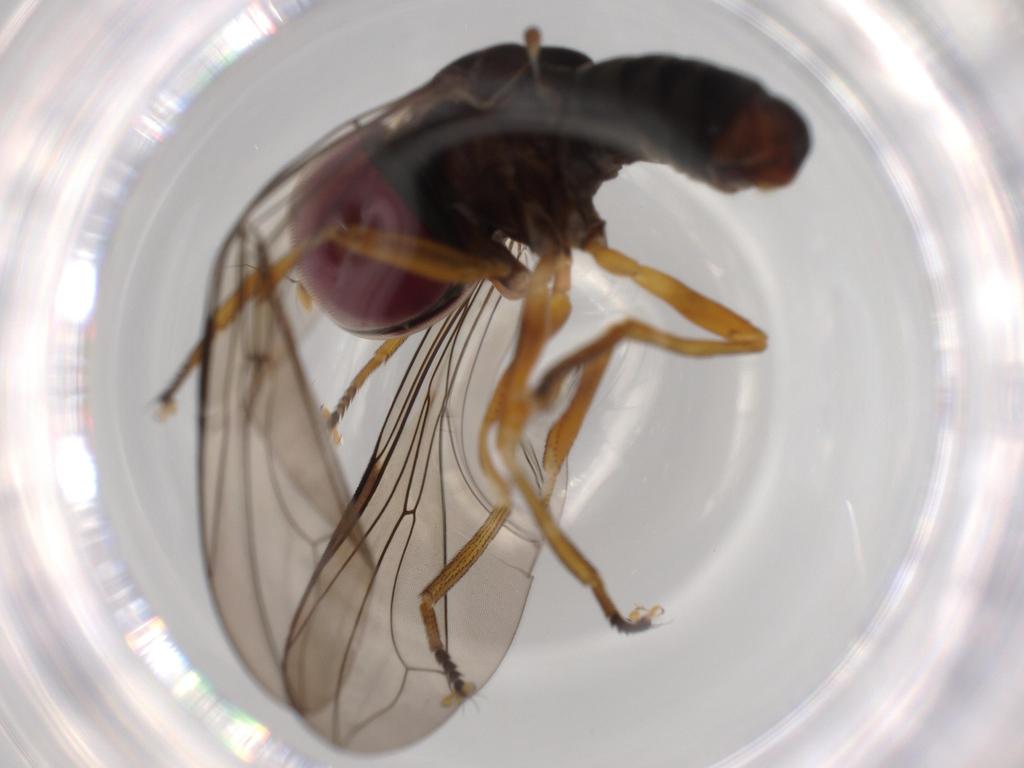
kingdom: Animalia
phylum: Arthropoda
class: Insecta
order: Diptera
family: Pipunculidae
